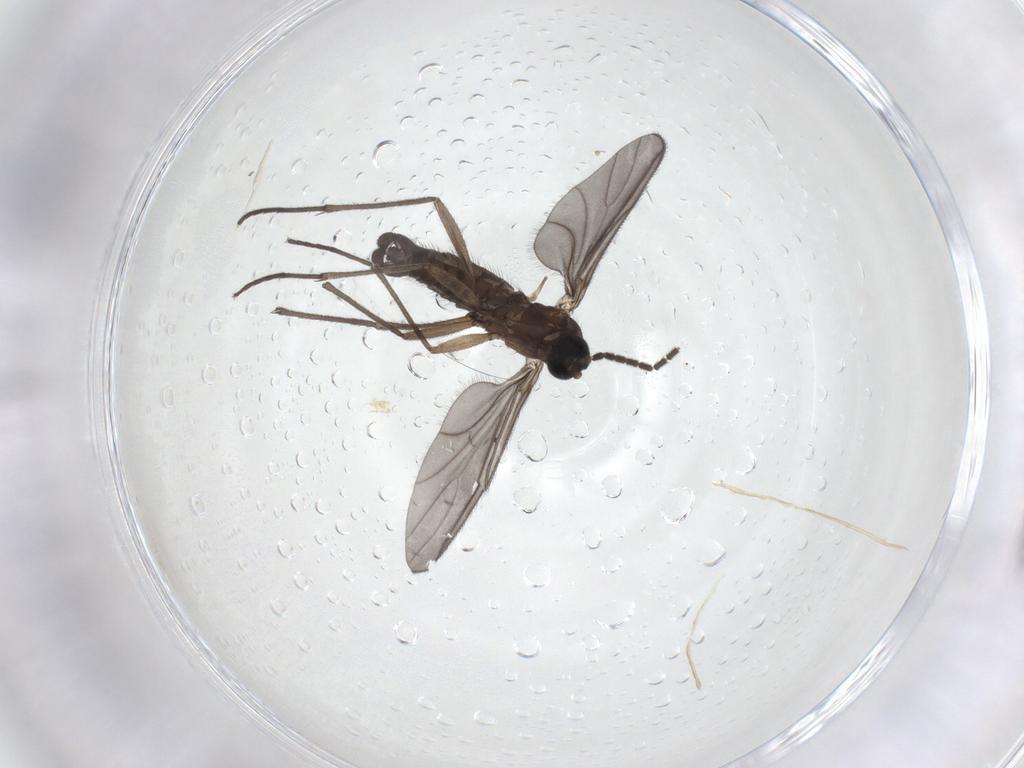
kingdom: Animalia
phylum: Arthropoda
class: Insecta
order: Diptera
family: Sciaridae
